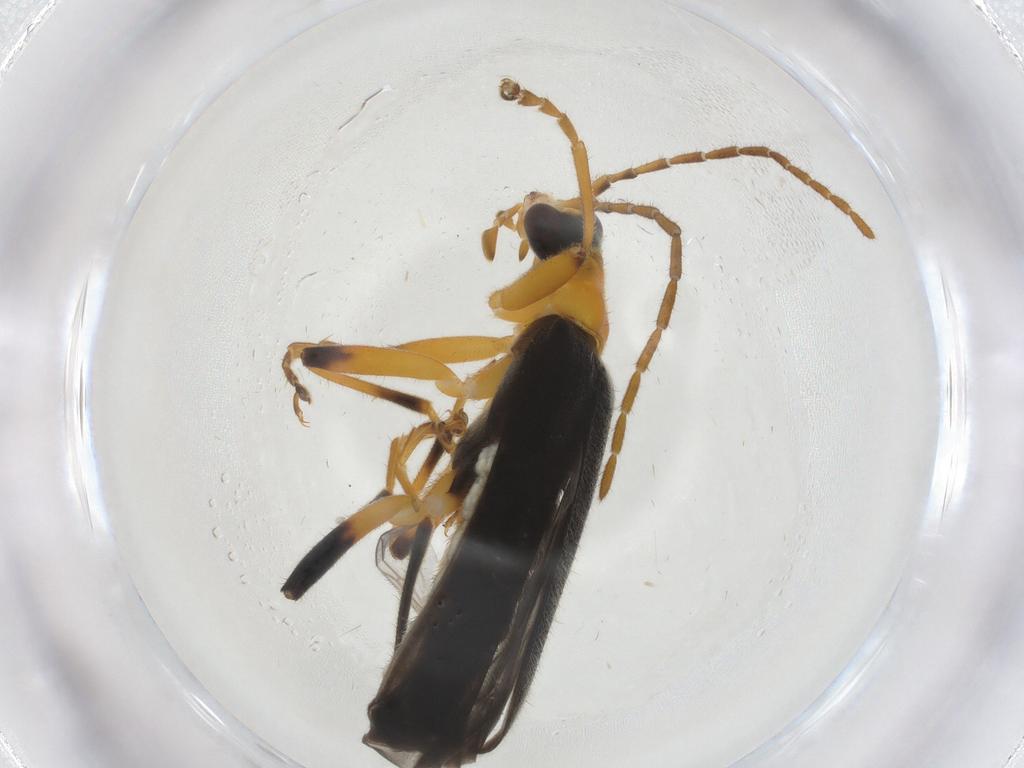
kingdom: Animalia
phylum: Arthropoda
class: Insecta
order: Coleoptera
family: Cantharidae
